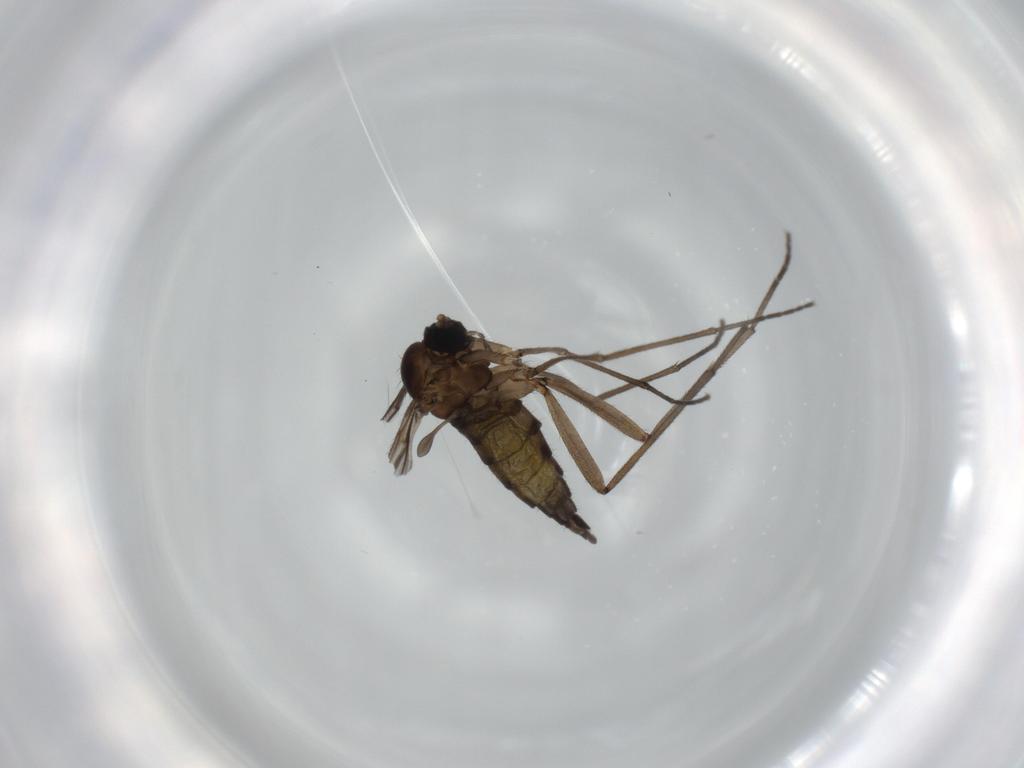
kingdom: Animalia
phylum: Arthropoda
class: Insecta
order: Diptera
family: Sciaridae
